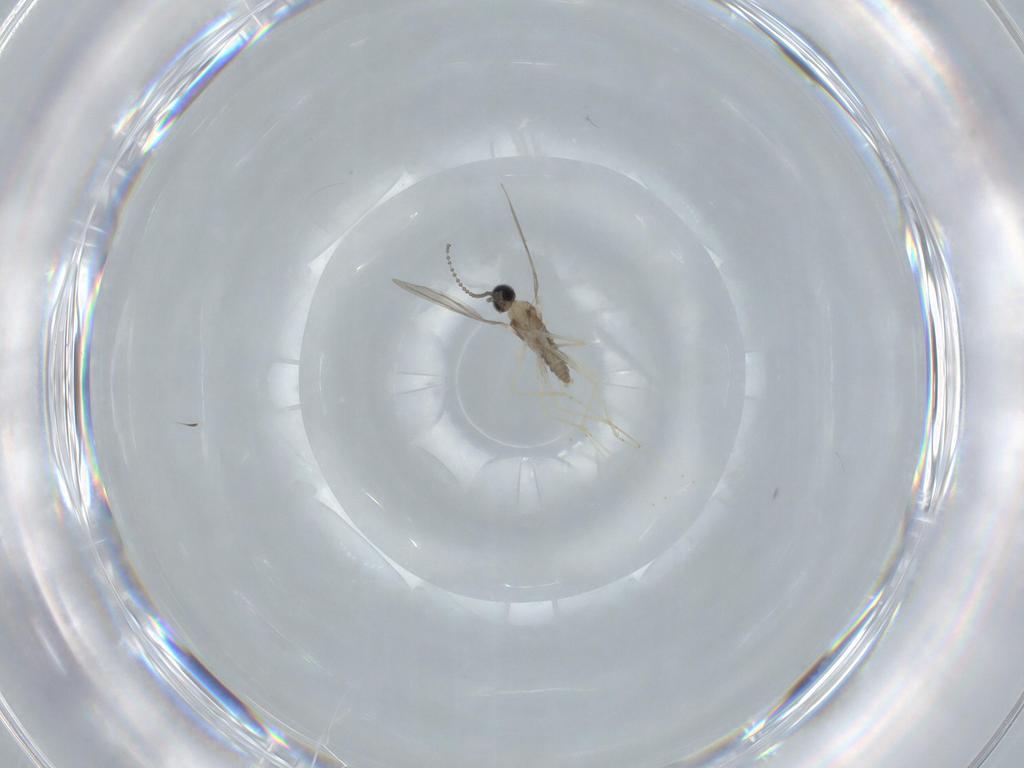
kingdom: Animalia
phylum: Arthropoda
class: Insecta
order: Diptera
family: Cecidomyiidae
